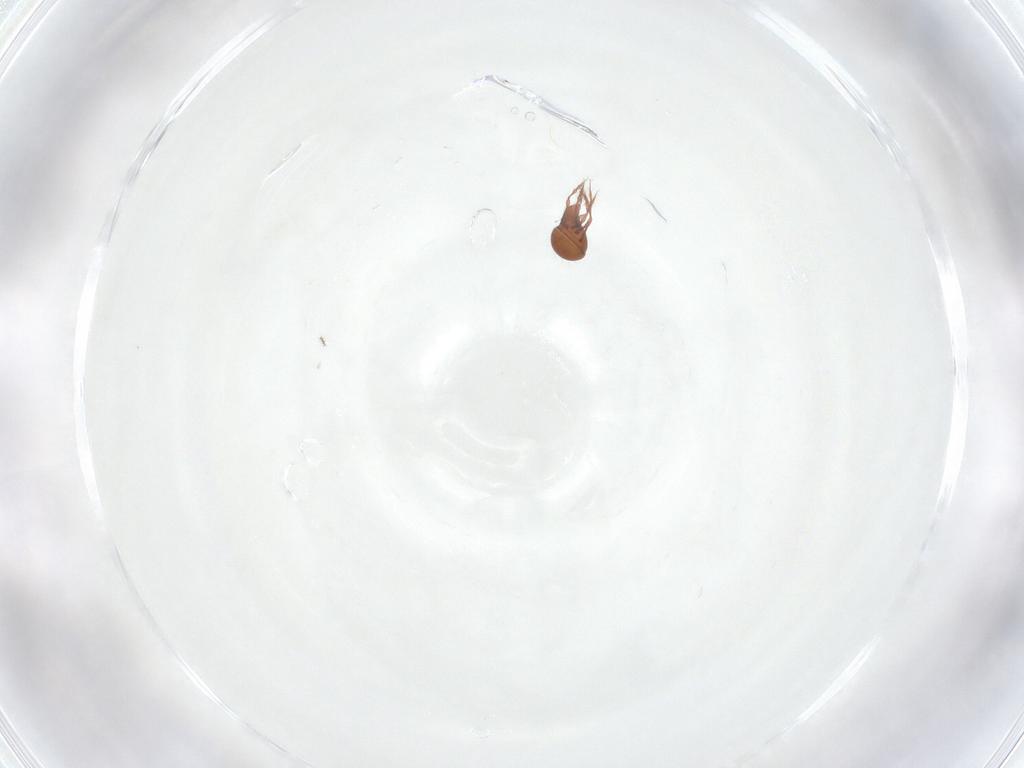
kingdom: Animalia
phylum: Arthropoda
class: Arachnida
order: Sarcoptiformes
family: Oppiidae
